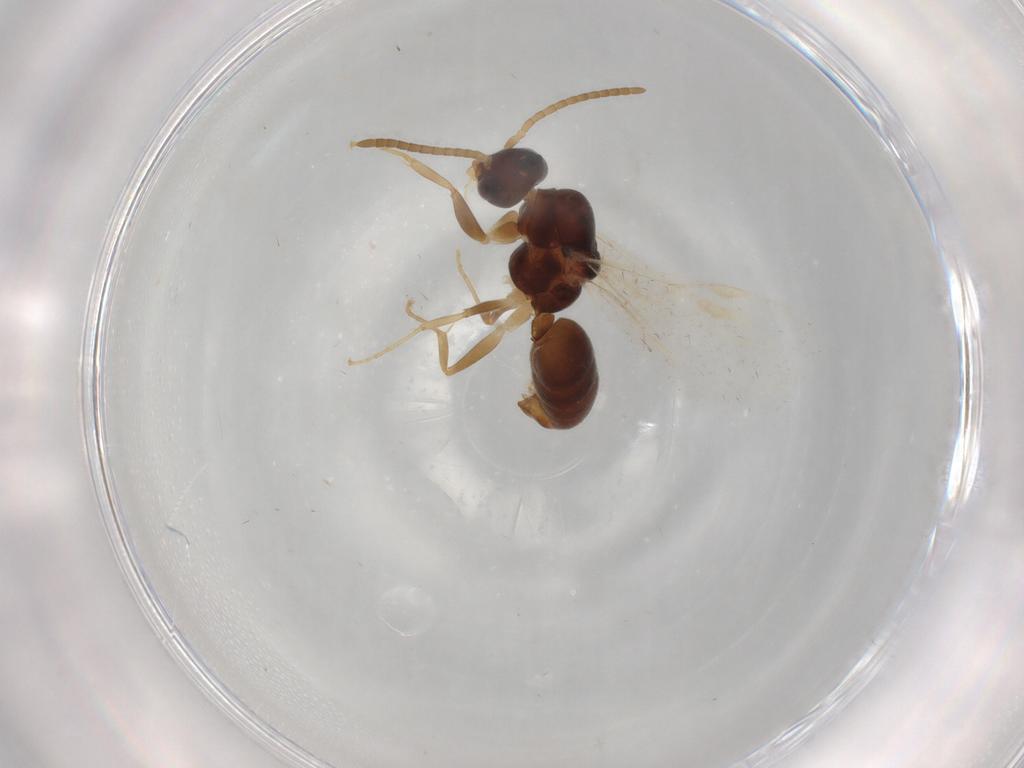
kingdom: Animalia
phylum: Arthropoda
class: Insecta
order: Hymenoptera
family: Formicidae
